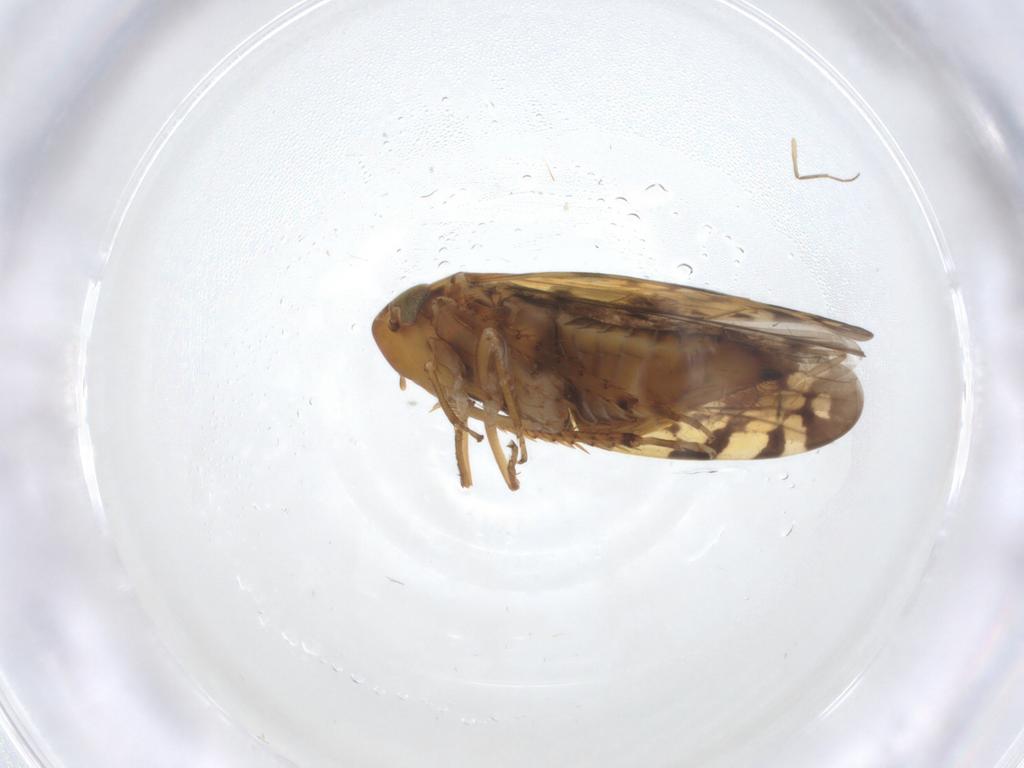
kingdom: Animalia
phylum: Arthropoda
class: Insecta
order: Hemiptera
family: Cicadellidae
